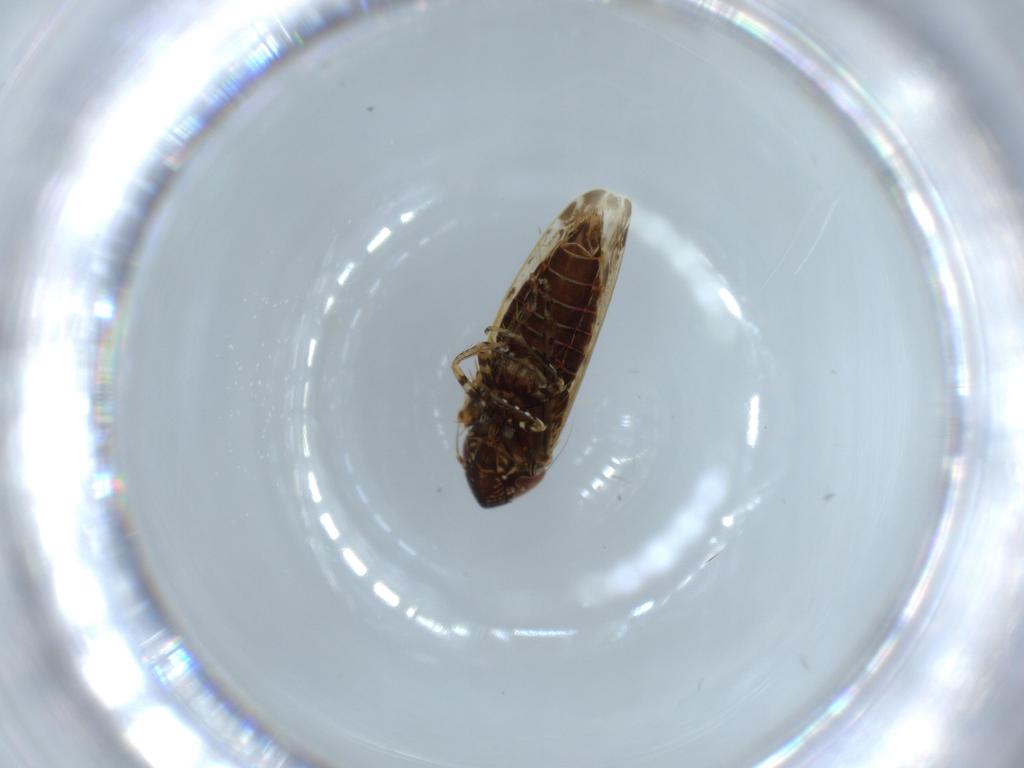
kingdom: Animalia
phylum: Arthropoda
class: Insecta
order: Hemiptera
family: Cicadellidae
